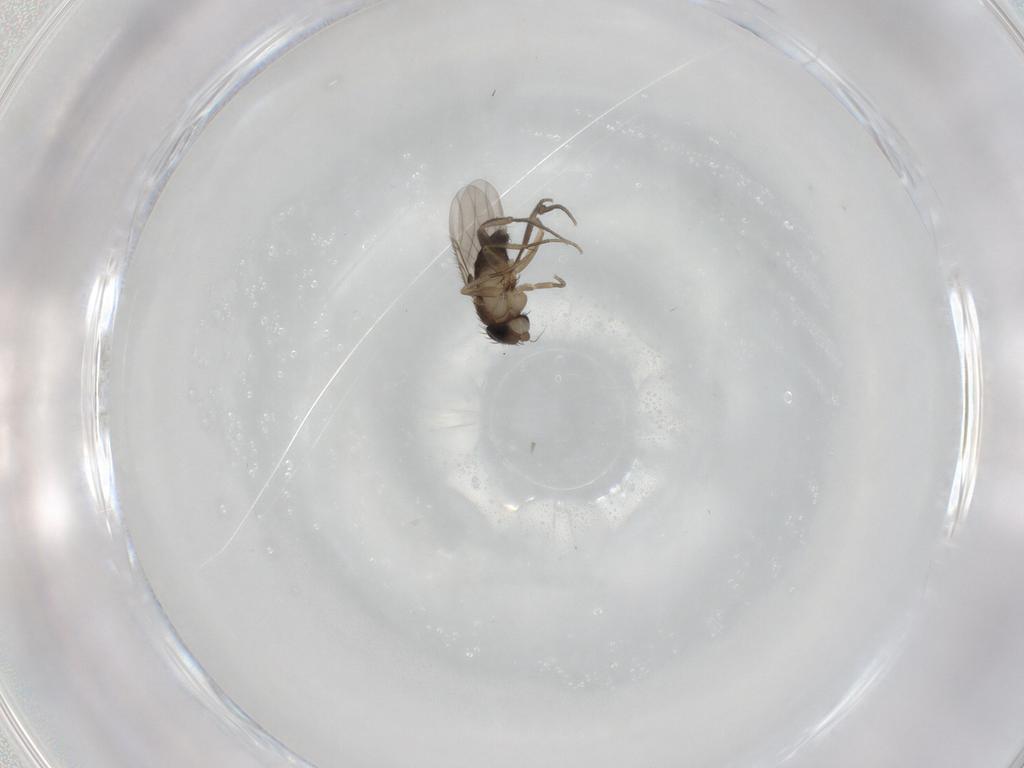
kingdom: Animalia
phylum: Arthropoda
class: Insecta
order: Diptera
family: Phoridae
